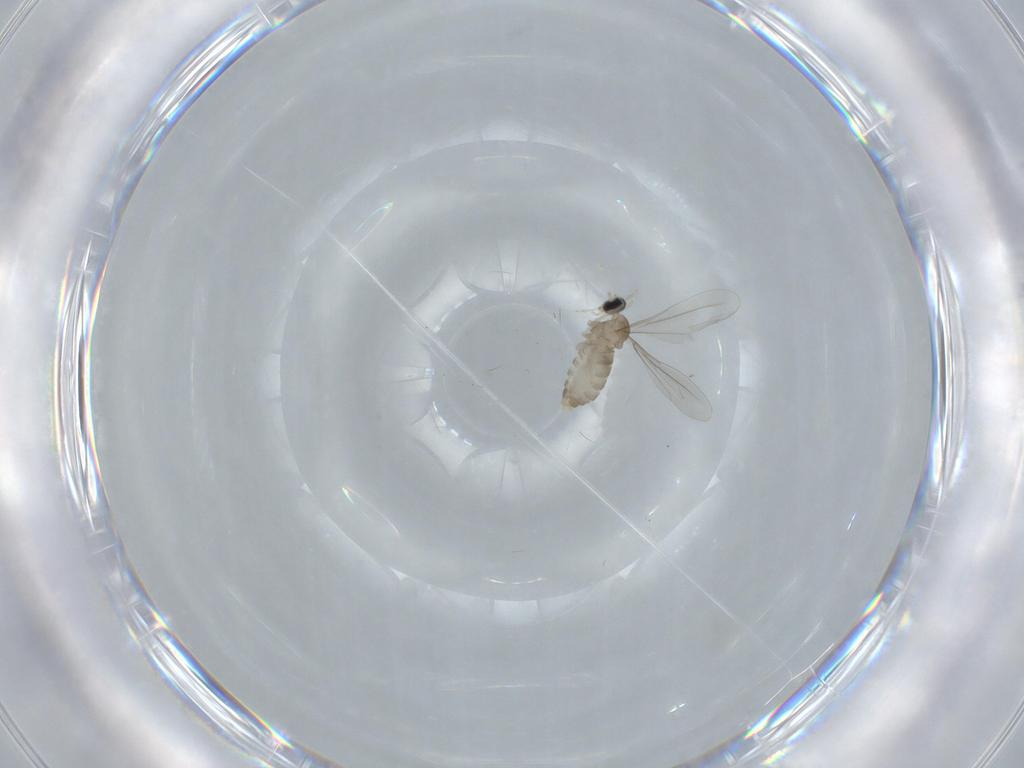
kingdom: Animalia
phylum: Arthropoda
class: Insecta
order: Diptera
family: Cecidomyiidae
